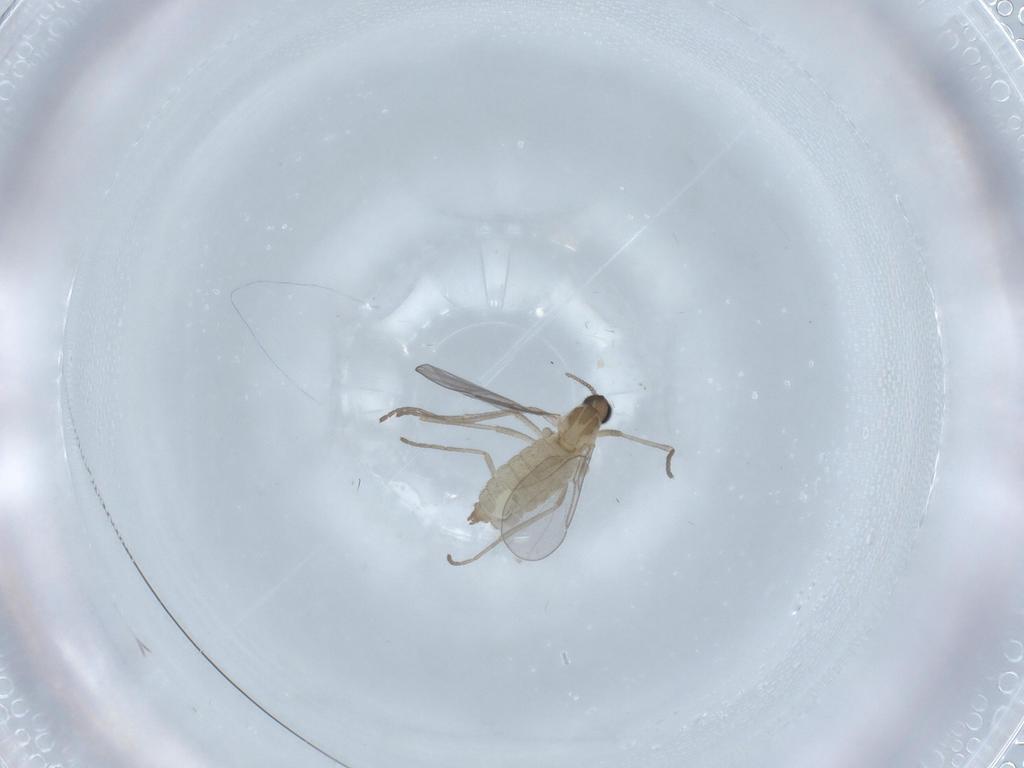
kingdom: Animalia
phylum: Arthropoda
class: Insecta
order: Diptera
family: Cecidomyiidae
